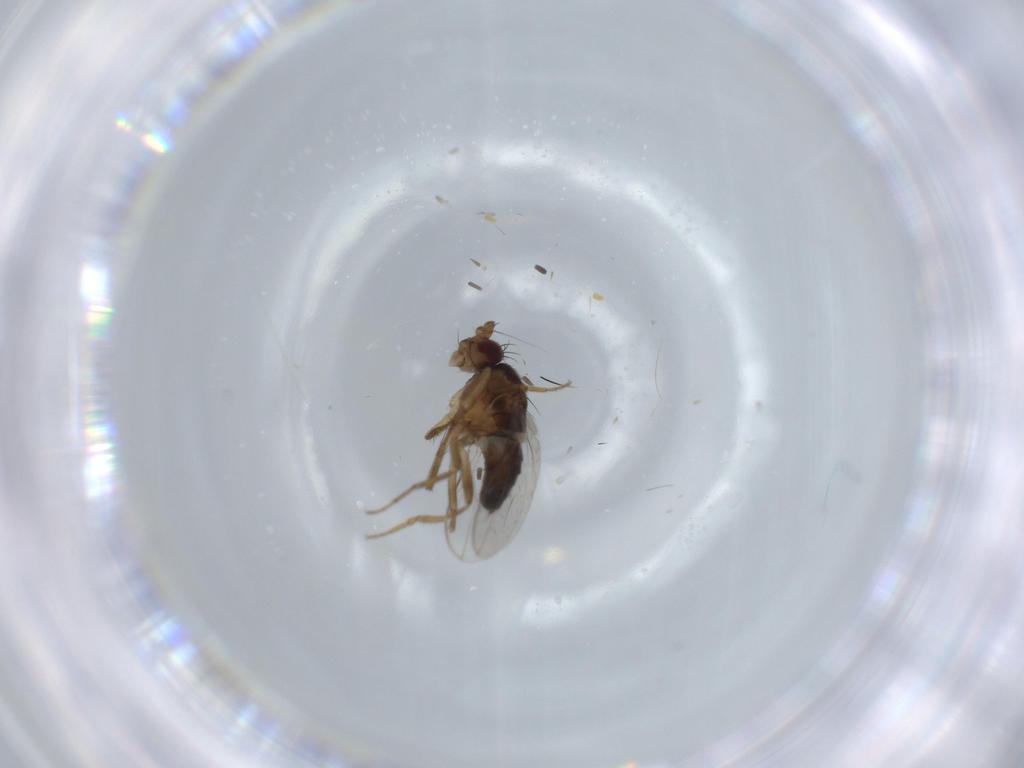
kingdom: Animalia
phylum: Arthropoda
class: Insecta
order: Diptera
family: Sphaeroceridae
